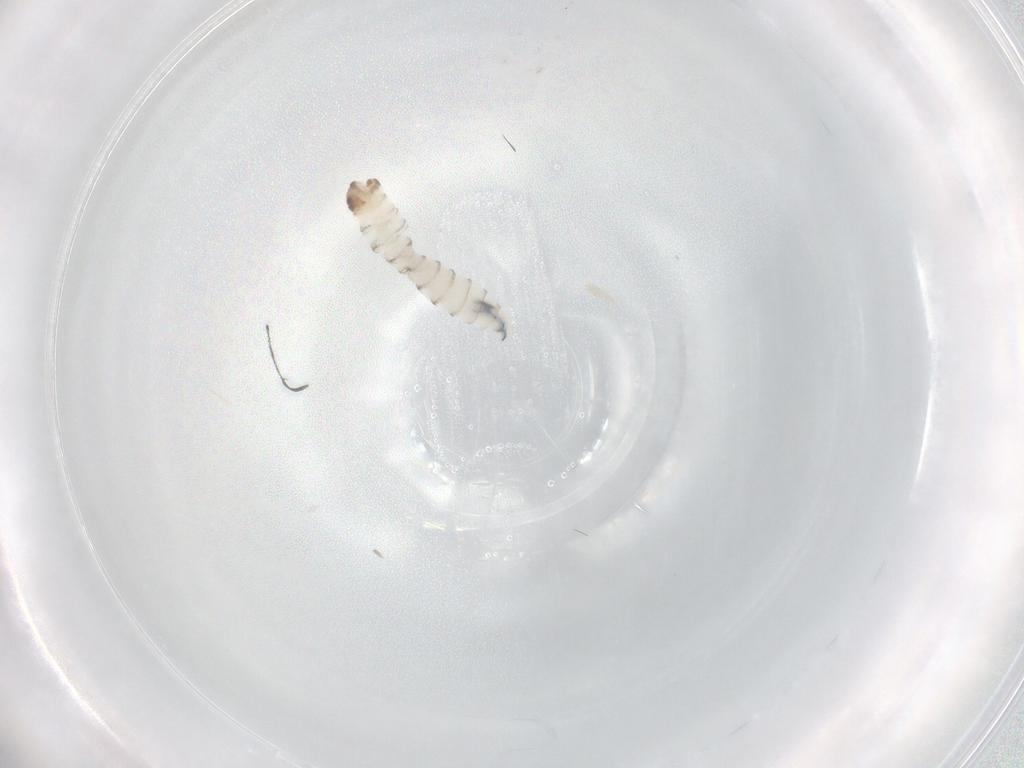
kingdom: Animalia
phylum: Arthropoda
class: Insecta
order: Diptera
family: Sarcophagidae
